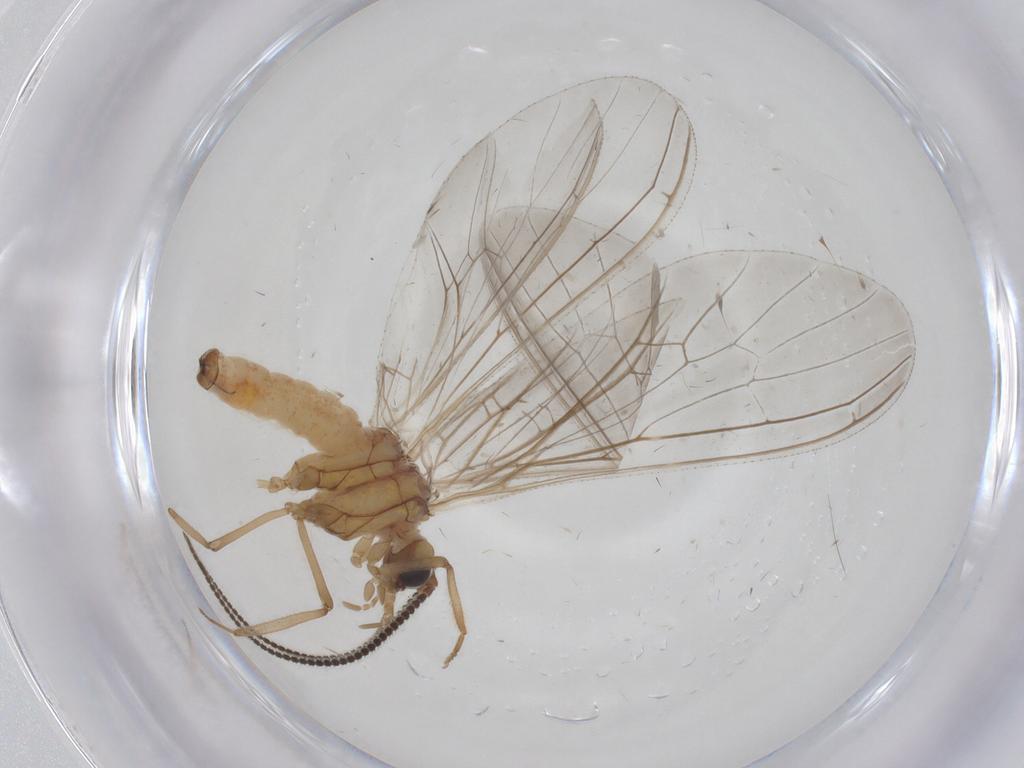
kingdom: Animalia
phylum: Arthropoda
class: Insecta
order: Neuroptera
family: Coniopterygidae
